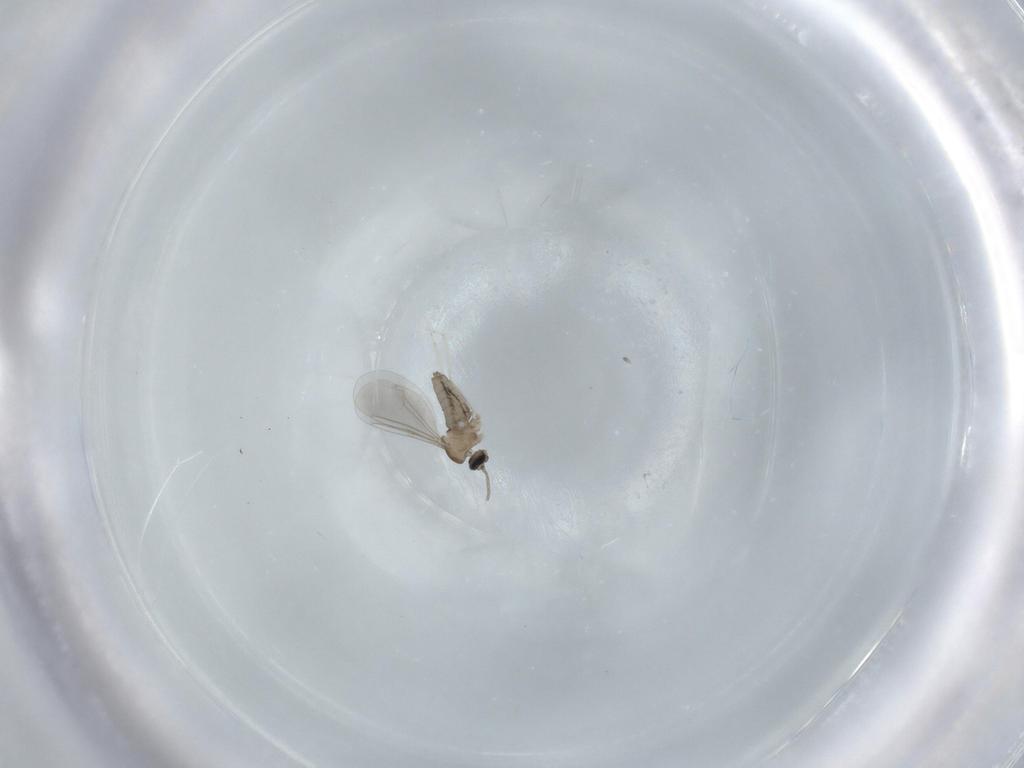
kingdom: Animalia
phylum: Arthropoda
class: Insecta
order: Diptera
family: Cecidomyiidae
